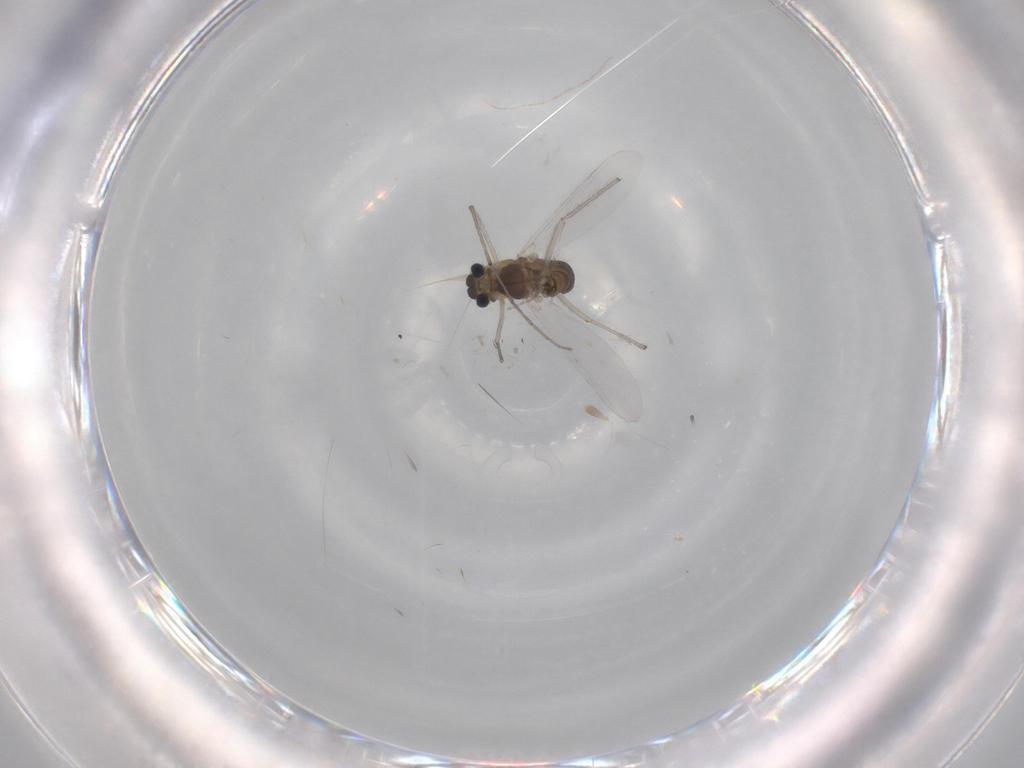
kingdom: Animalia
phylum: Arthropoda
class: Insecta
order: Diptera
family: Chironomidae
